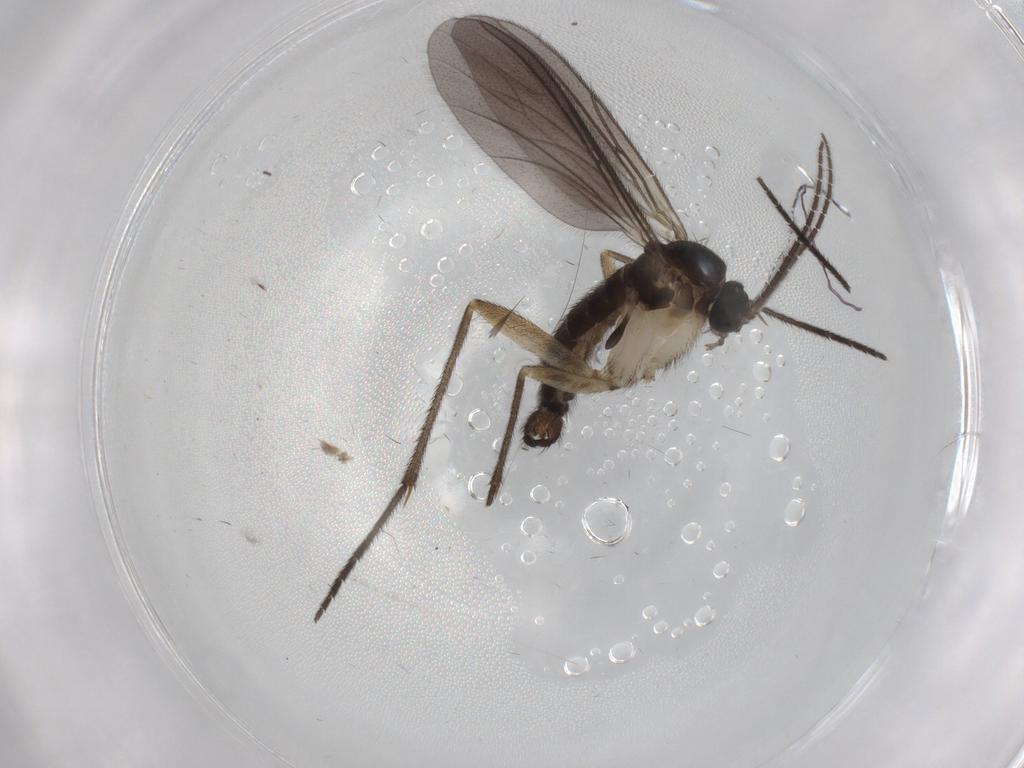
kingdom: Animalia
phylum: Arthropoda
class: Insecta
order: Diptera
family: Sciaridae
